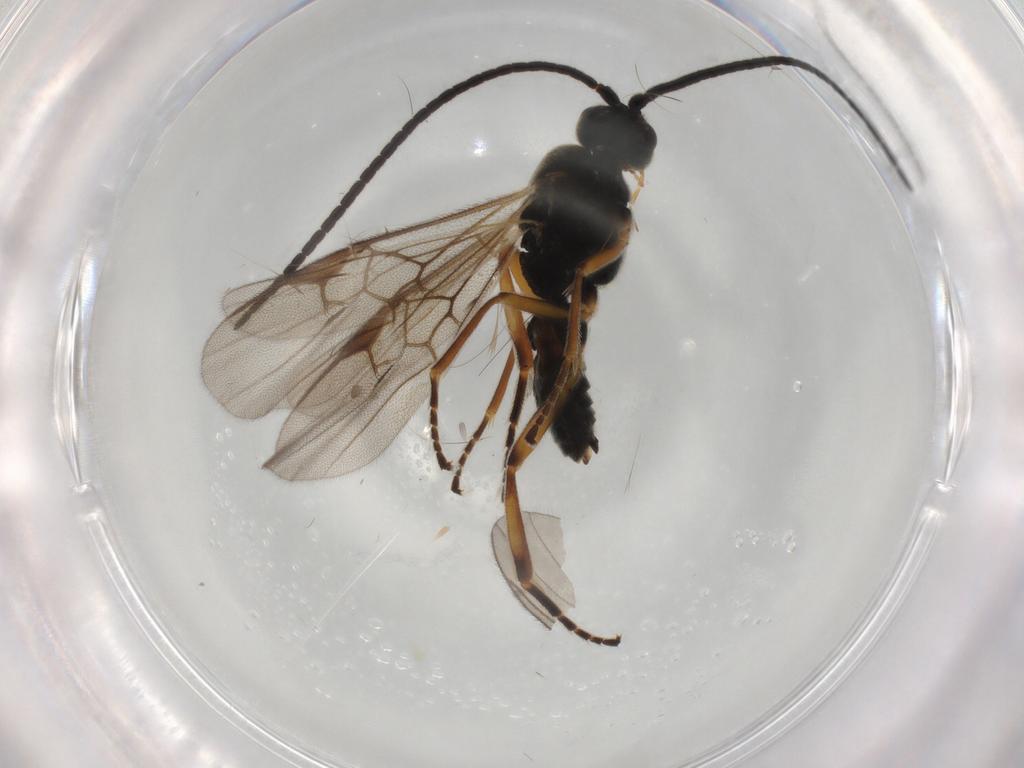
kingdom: Animalia
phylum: Arthropoda
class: Insecta
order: Hymenoptera
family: Braconidae
